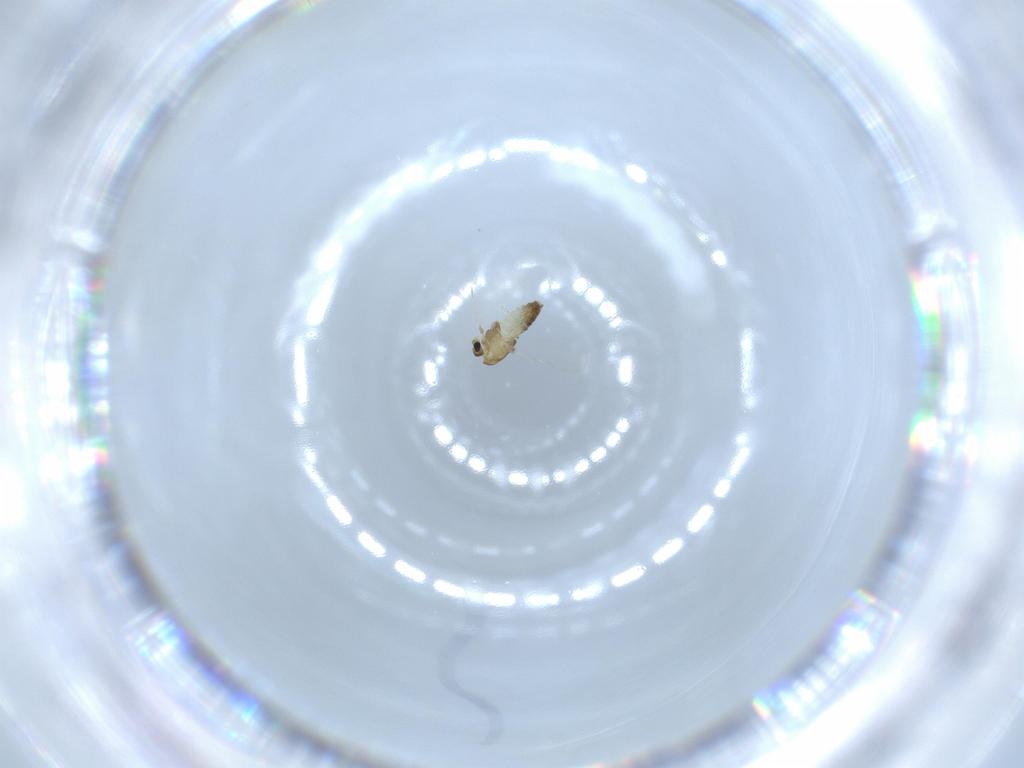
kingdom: Animalia
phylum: Arthropoda
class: Insecta
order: Diptera
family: Chironomidae
